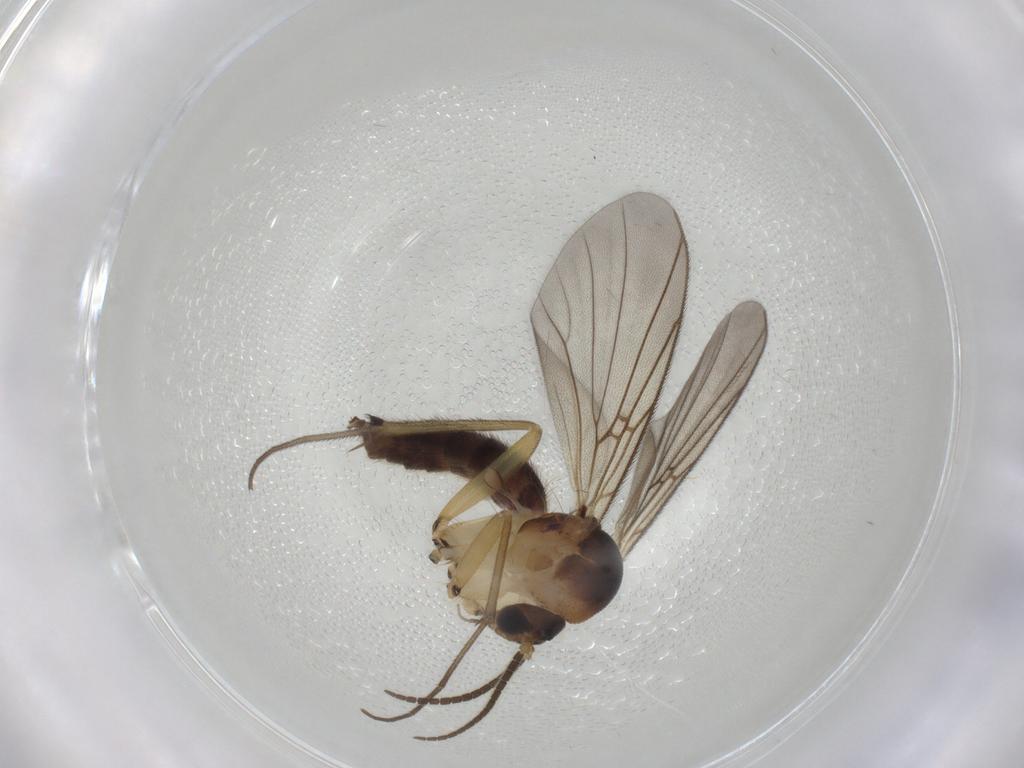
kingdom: Animalia
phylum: Arthropoda
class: Insecta
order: Diptera
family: Mycetophilidae
